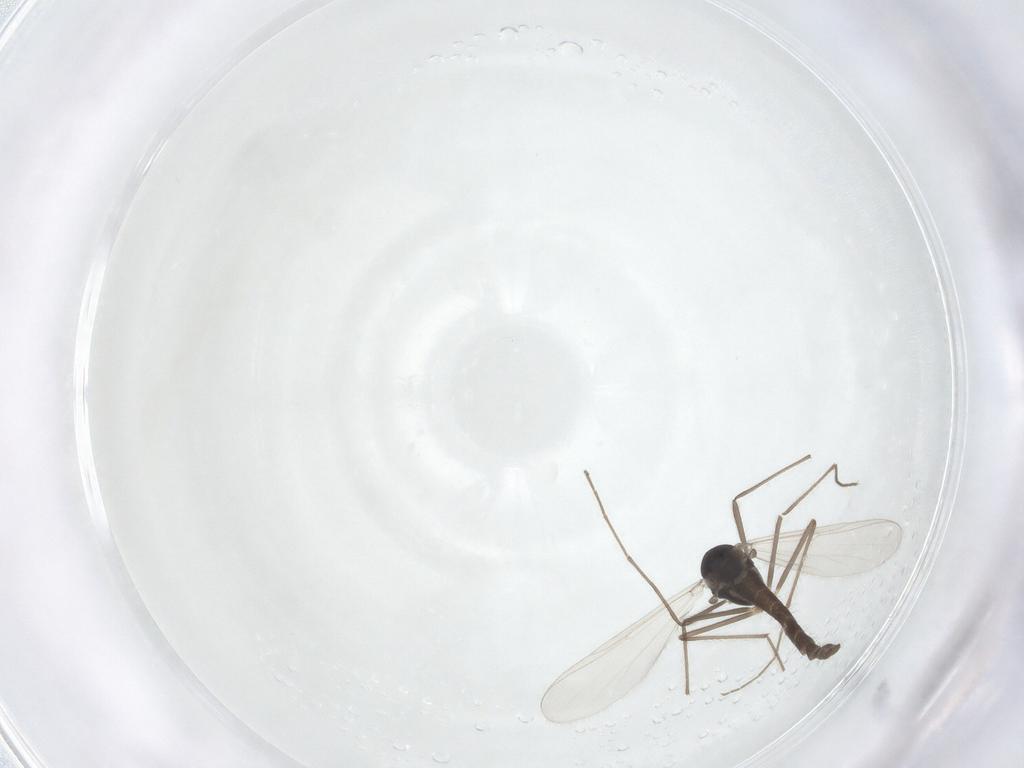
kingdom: Animalia
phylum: Arthropoda
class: Insecta
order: Diptera
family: Chironomidae
